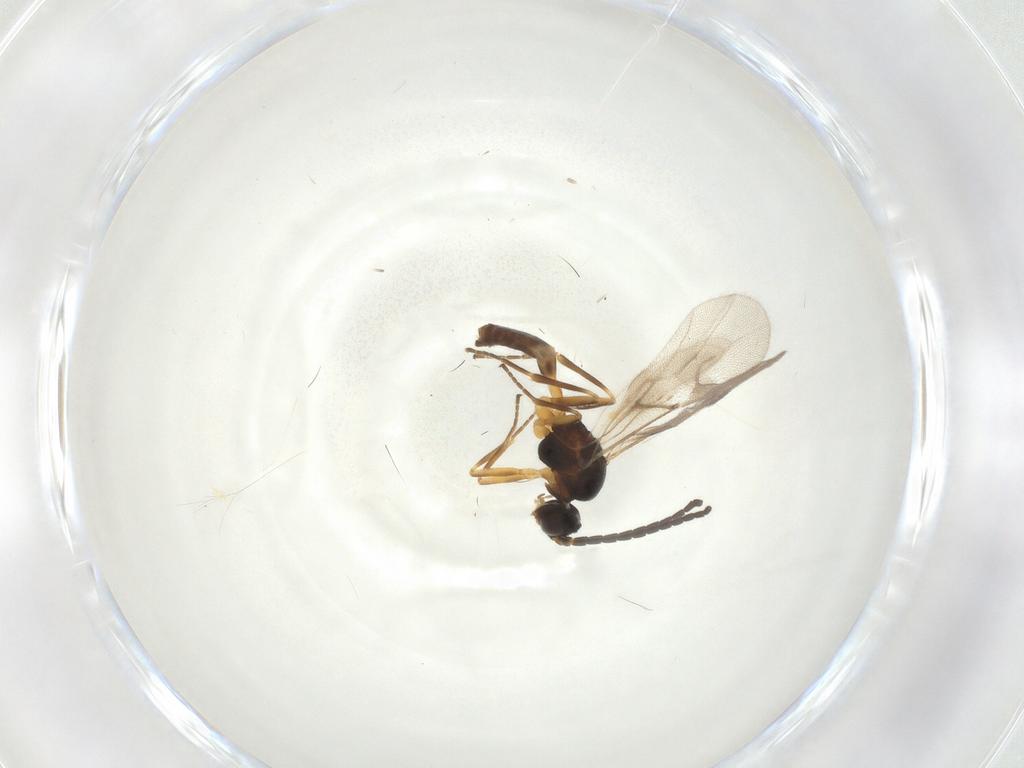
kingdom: Animalia
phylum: Arthropoda
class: Insecta
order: Hymenoptera
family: Braconidae
